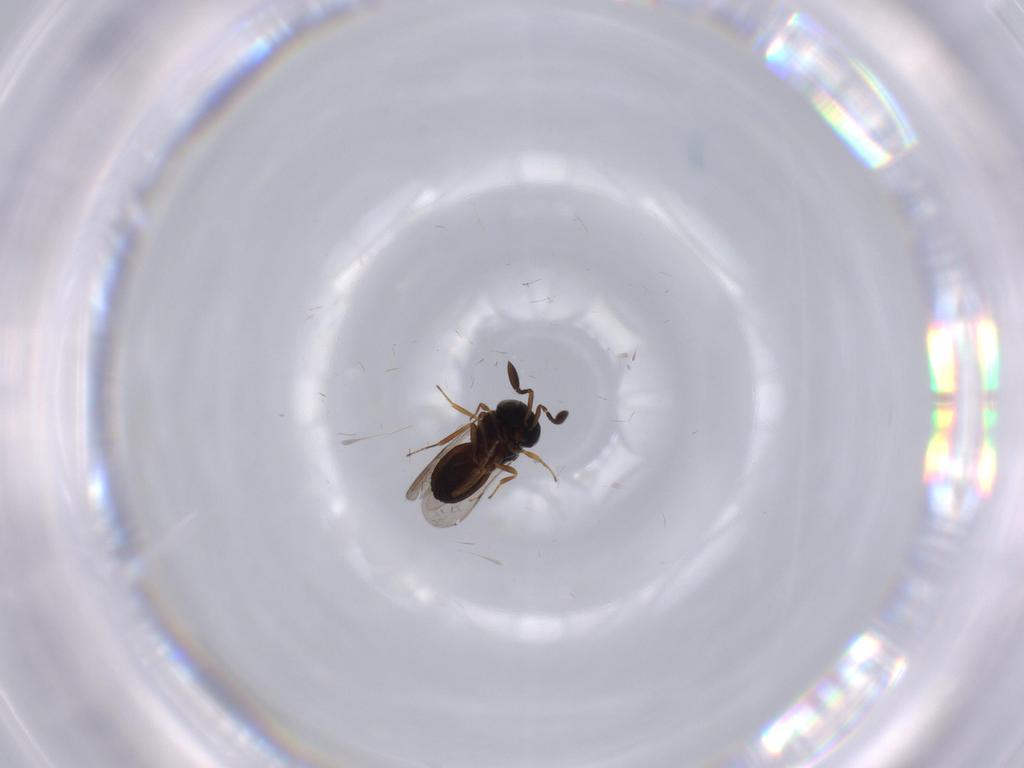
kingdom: Animalia
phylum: Arthropoda
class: Insecta
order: Coleoptera
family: Curculionidae
